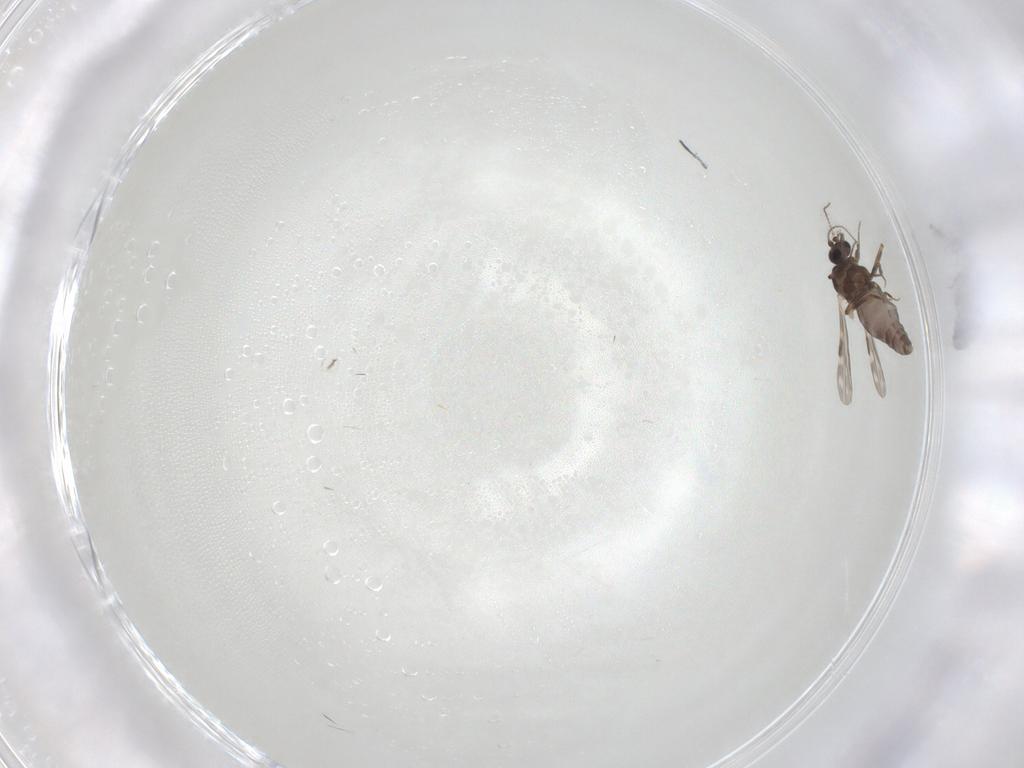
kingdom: Animalia
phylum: Arthropoda
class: Insecta
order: Diptera
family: Ceratopogonidae
